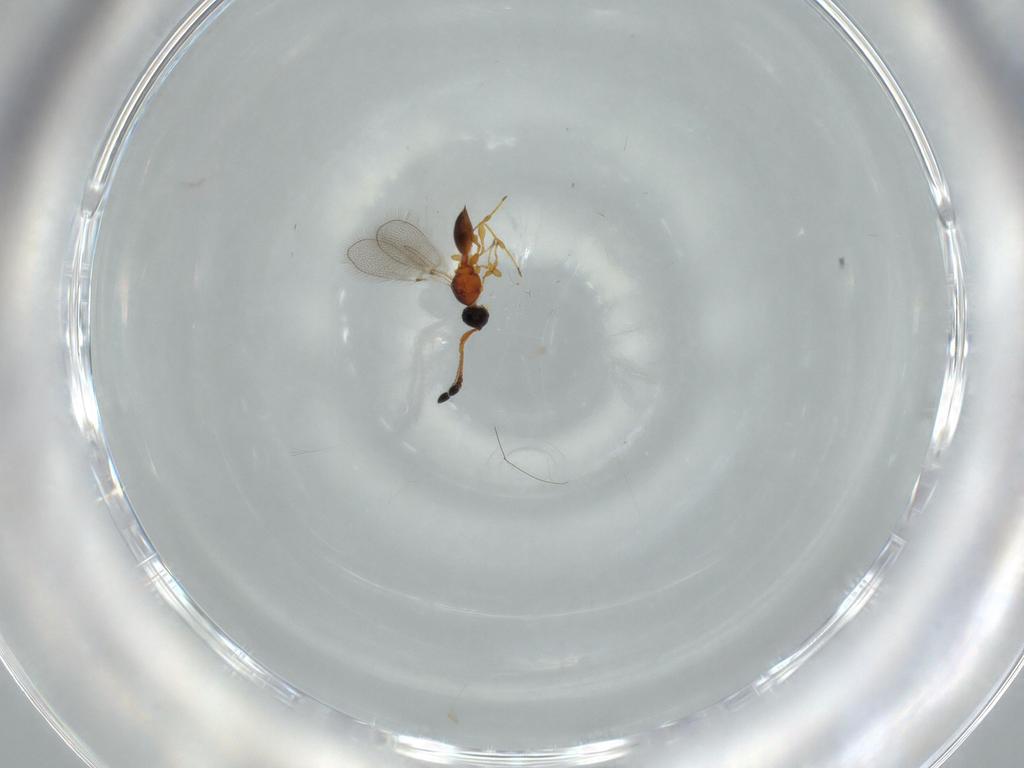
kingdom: Animalia
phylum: Arthropoda
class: Insecta
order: Hymenoptera
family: Diapriidae
